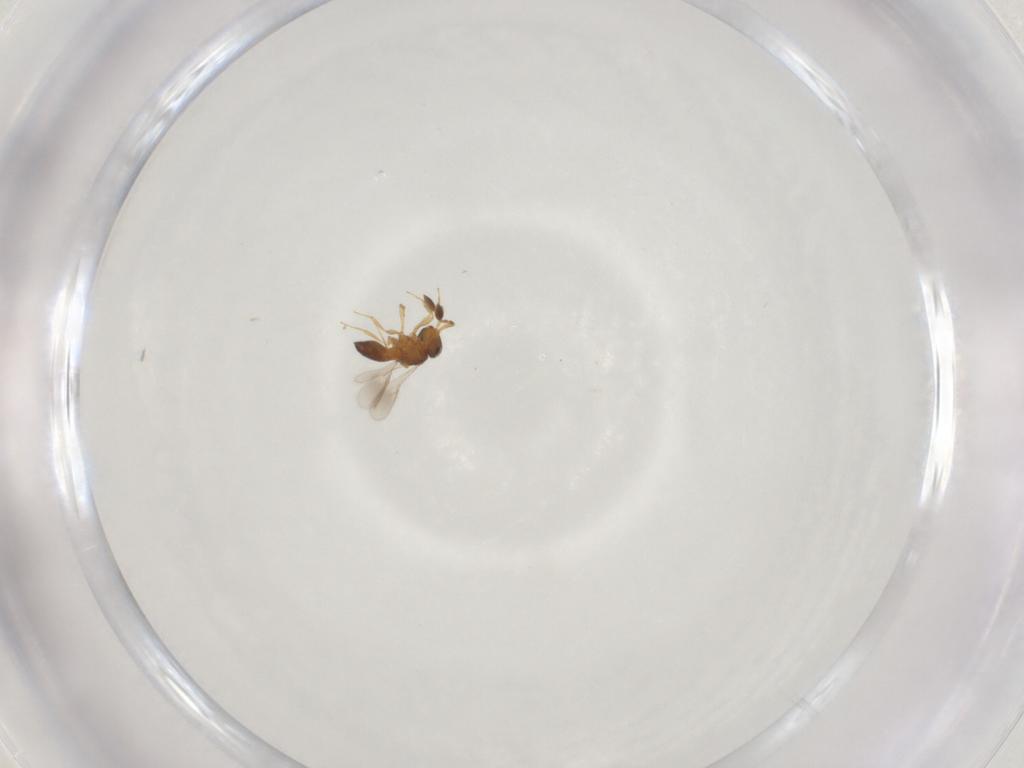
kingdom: Animalia
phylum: Arthropoda
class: Insecta
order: Hymenoptera
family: Scelionidae
